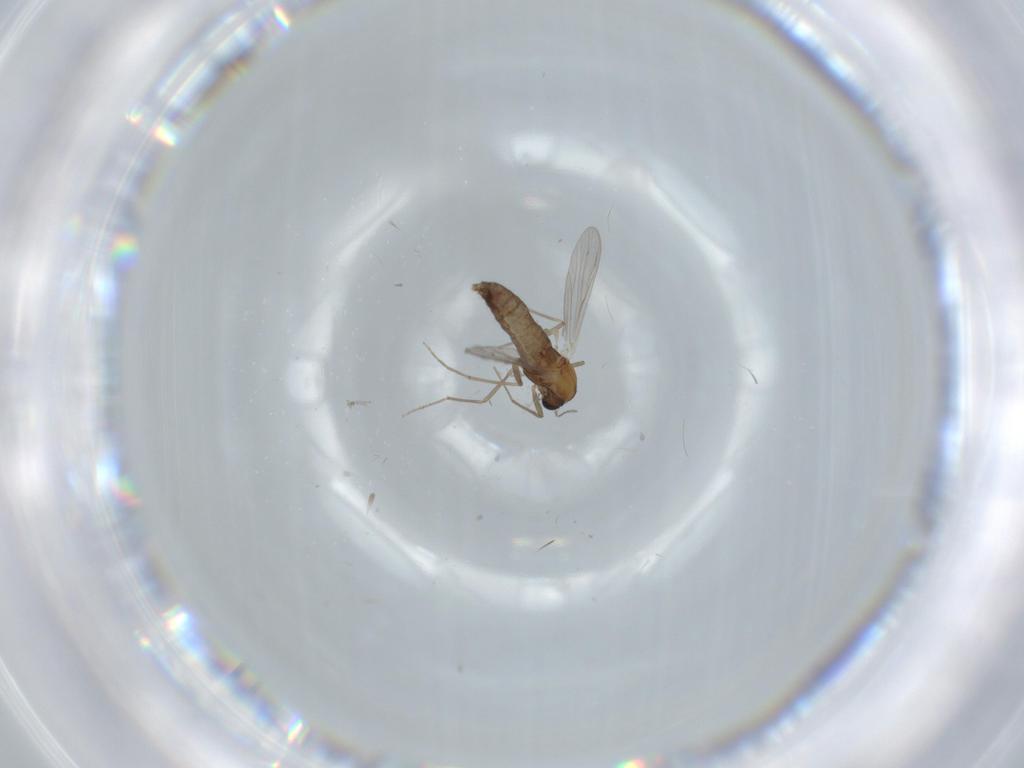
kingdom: Animalia
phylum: Arthropoda
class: Insecta
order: Diptera
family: Chironomidae
